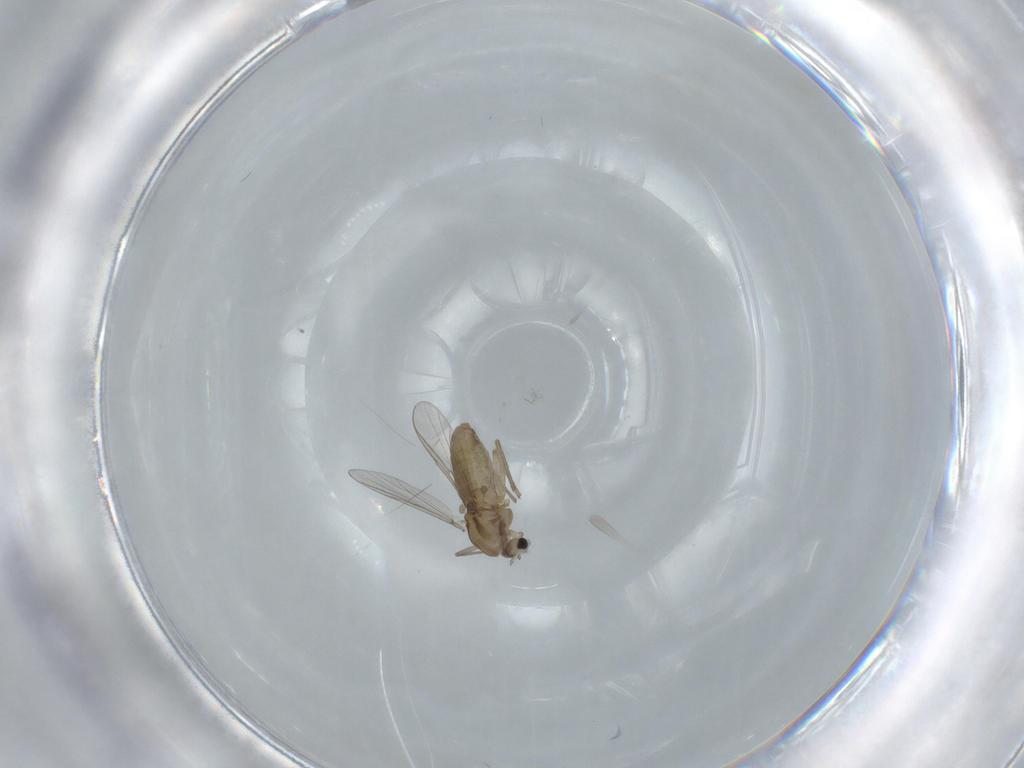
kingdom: Animalia
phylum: Arthropoda
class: Insecta
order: Diptera
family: Chironomidae
